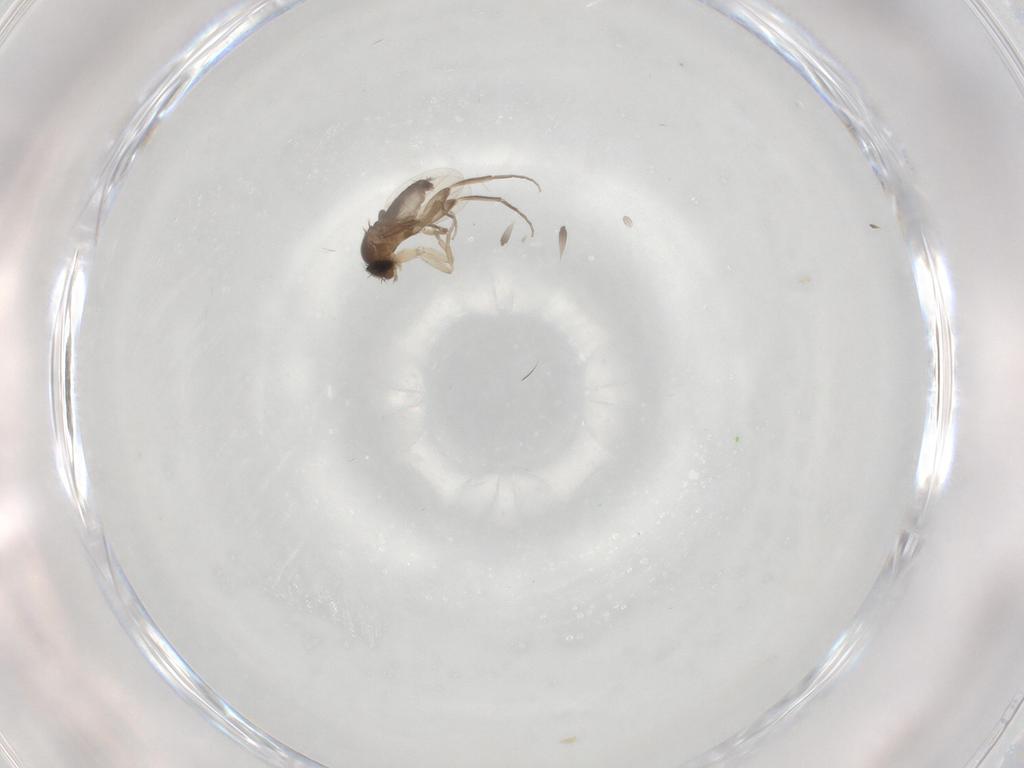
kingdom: Animalia
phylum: Arthropoda
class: Insecta
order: Diptera
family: Phoridae
